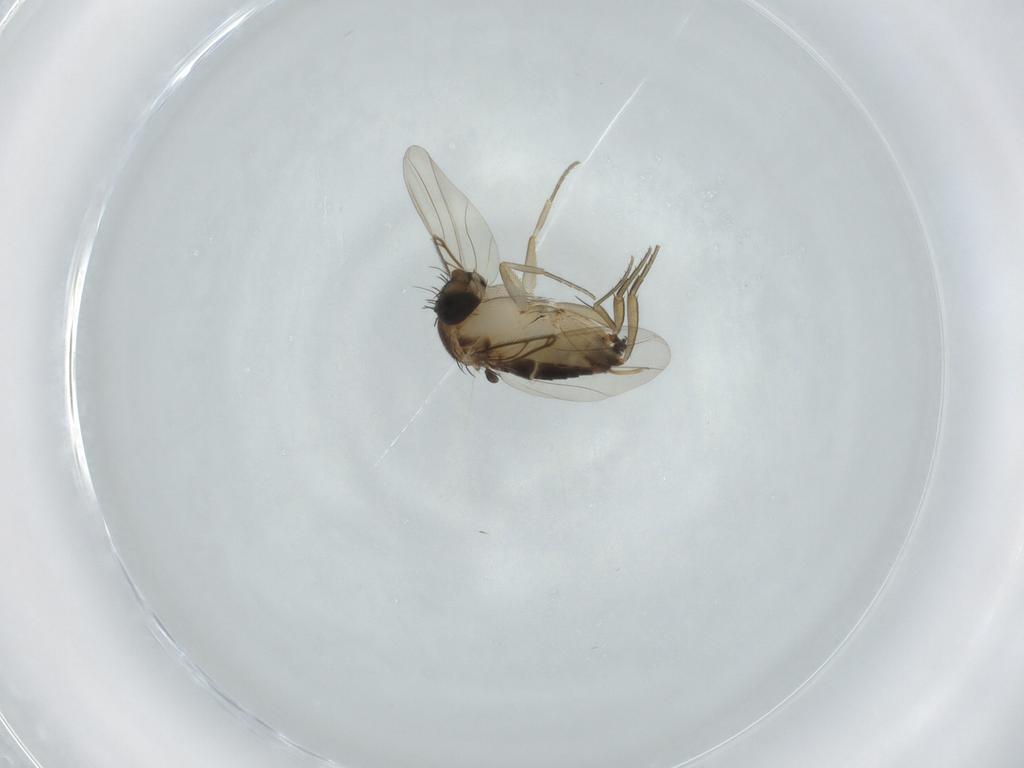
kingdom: Animalia
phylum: Arthropoda
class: Insecta
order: Diptera
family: Phoridae
